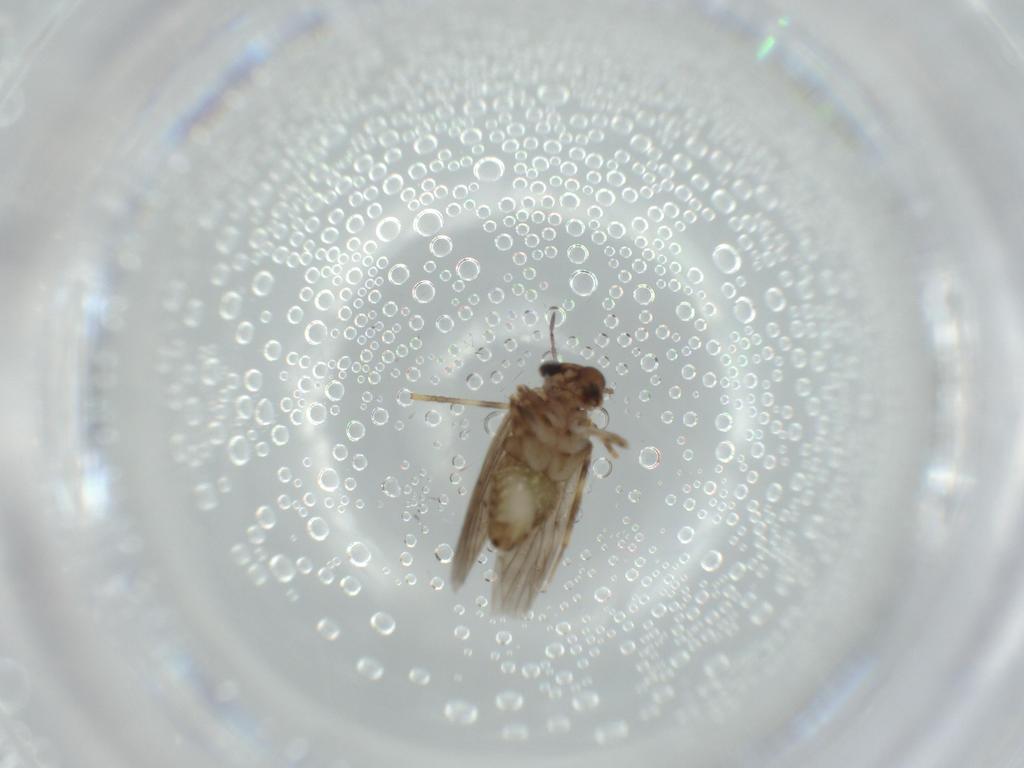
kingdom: Animalia
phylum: Arthropoda
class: Insecta
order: Psocodea
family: Lepidopsocidae
